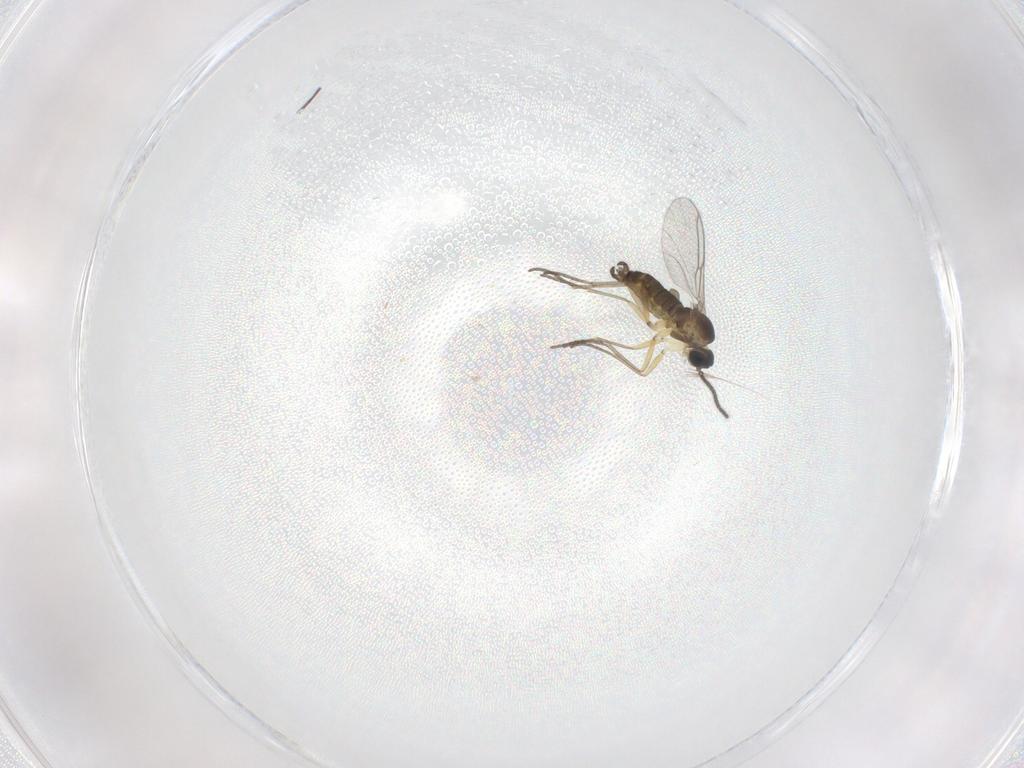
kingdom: Animalia
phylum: Arthropoda
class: Insecta
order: Diptera
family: Sciaridae
